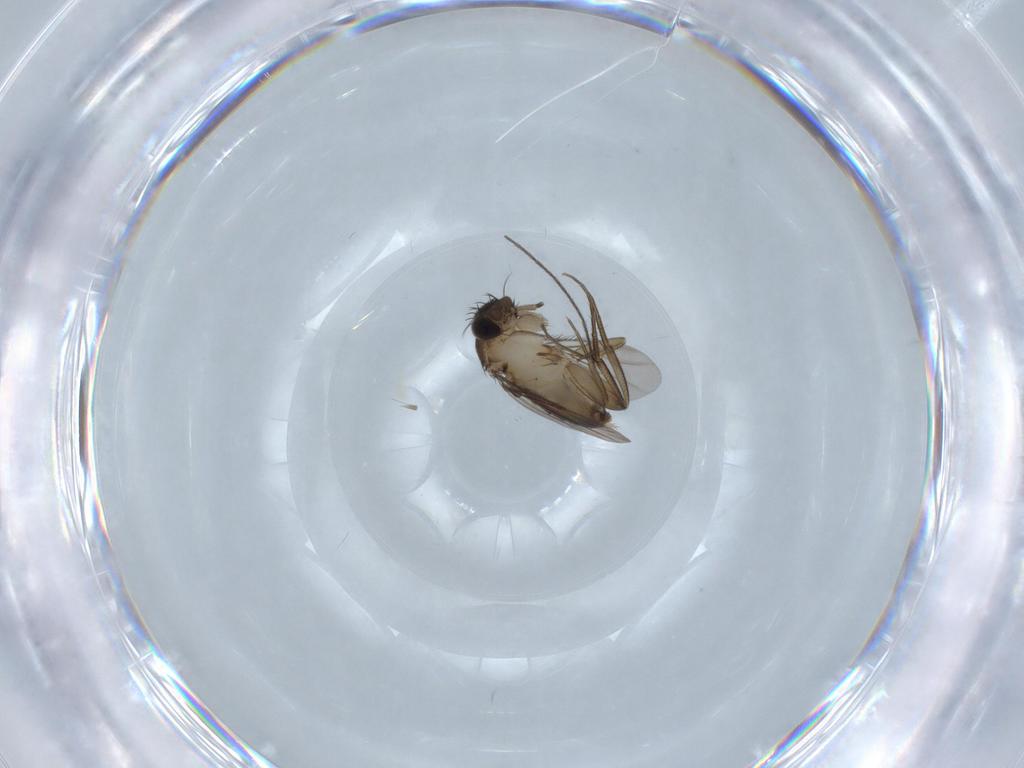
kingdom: Animalia
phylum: Arthropoda
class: Insecta
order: Diptera
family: Phoridae
